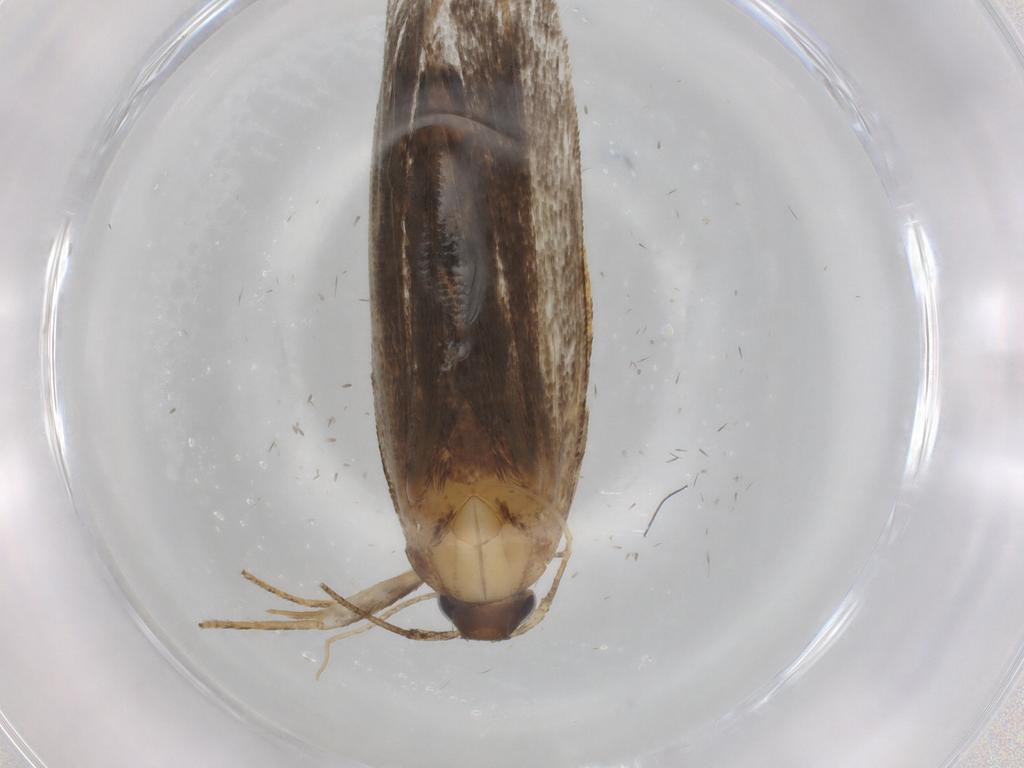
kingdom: Animalia
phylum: Arthropoda
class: Insecta
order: Lepidoptera
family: Gelechiidae
